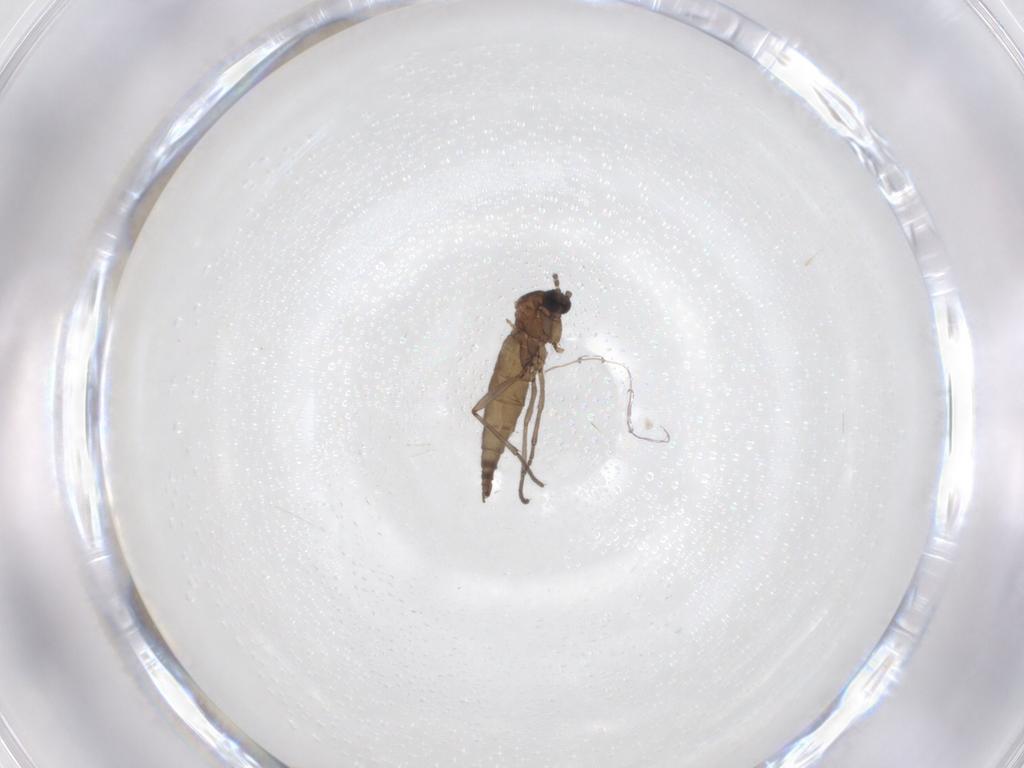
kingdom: Animalia
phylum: Arthropoda
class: Insecta
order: Diptera
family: Sciaridae
